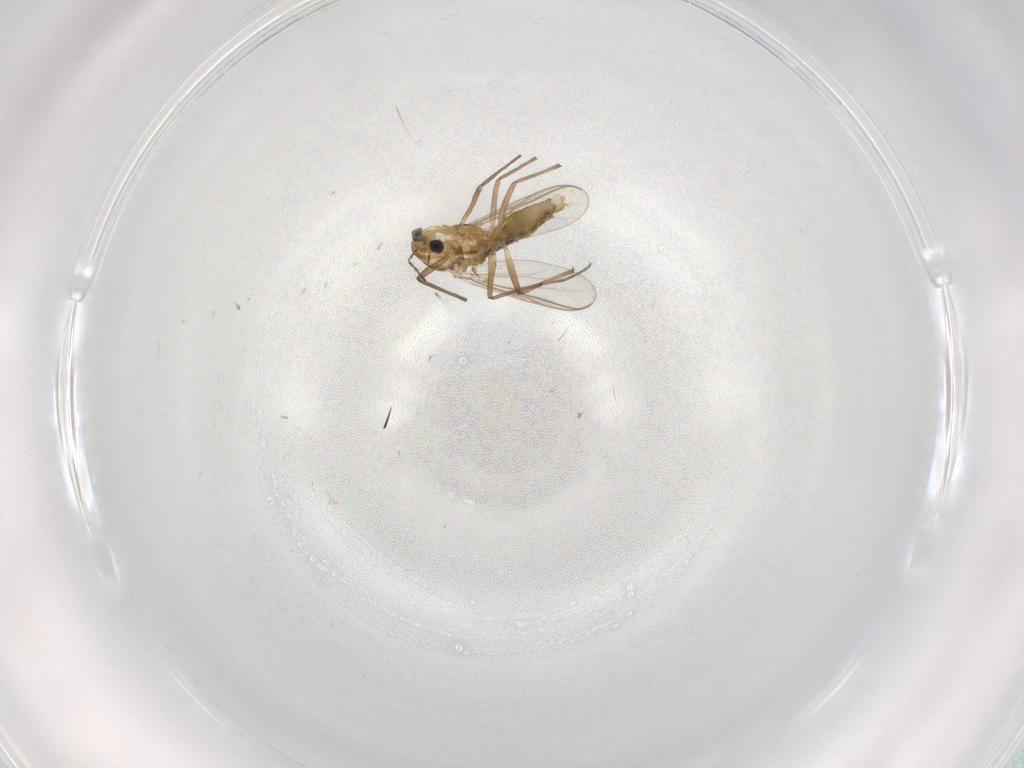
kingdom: Animalia
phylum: Arthropoda
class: Insecta
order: Diptera
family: Chironomidae
